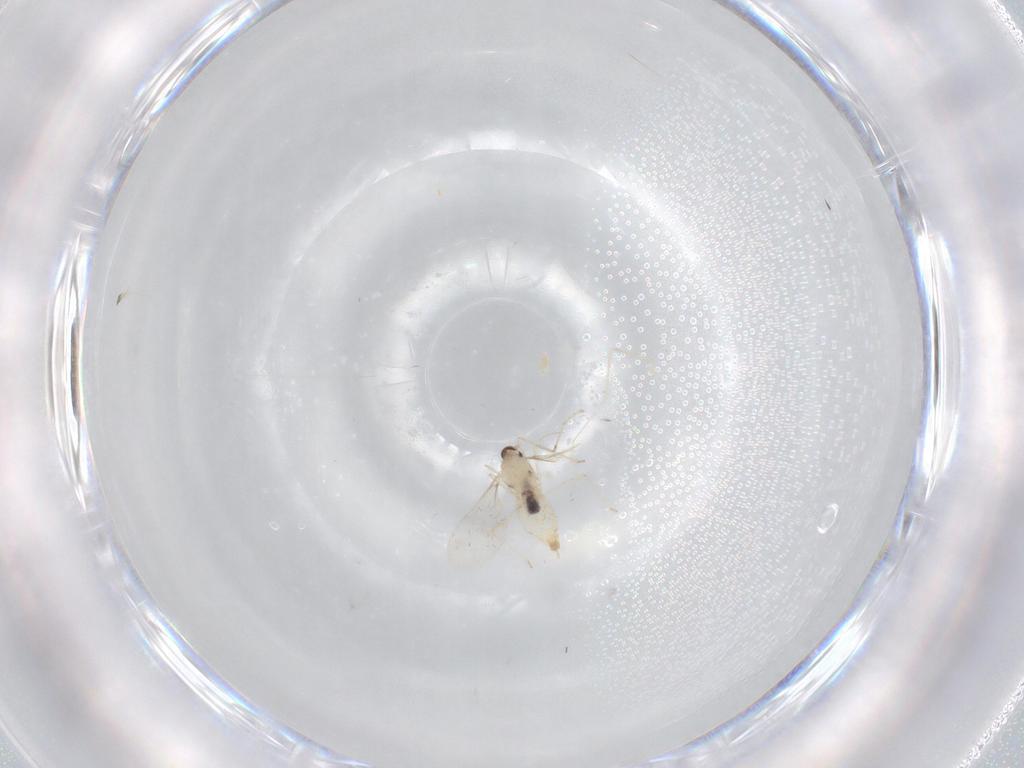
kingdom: Animalia
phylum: Arthropoda
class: Insecta
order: Diptera
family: Cecidomyiidae
